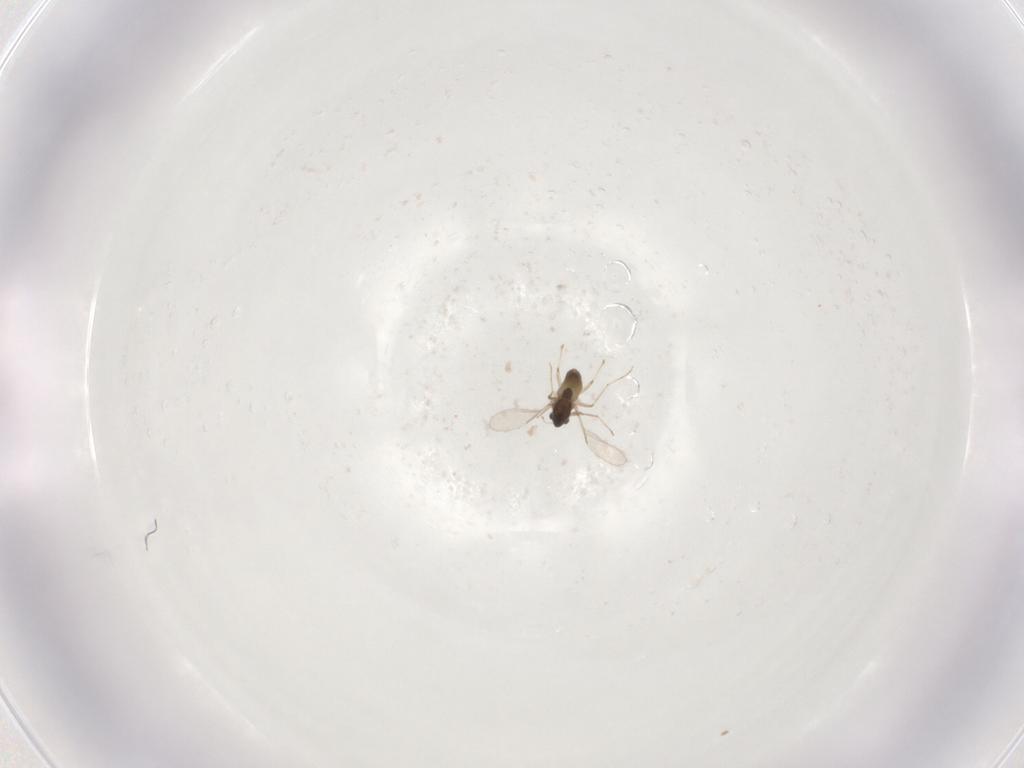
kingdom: Animalia
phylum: Arthropoda
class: Insecta
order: Diptera
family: Chironomidae
